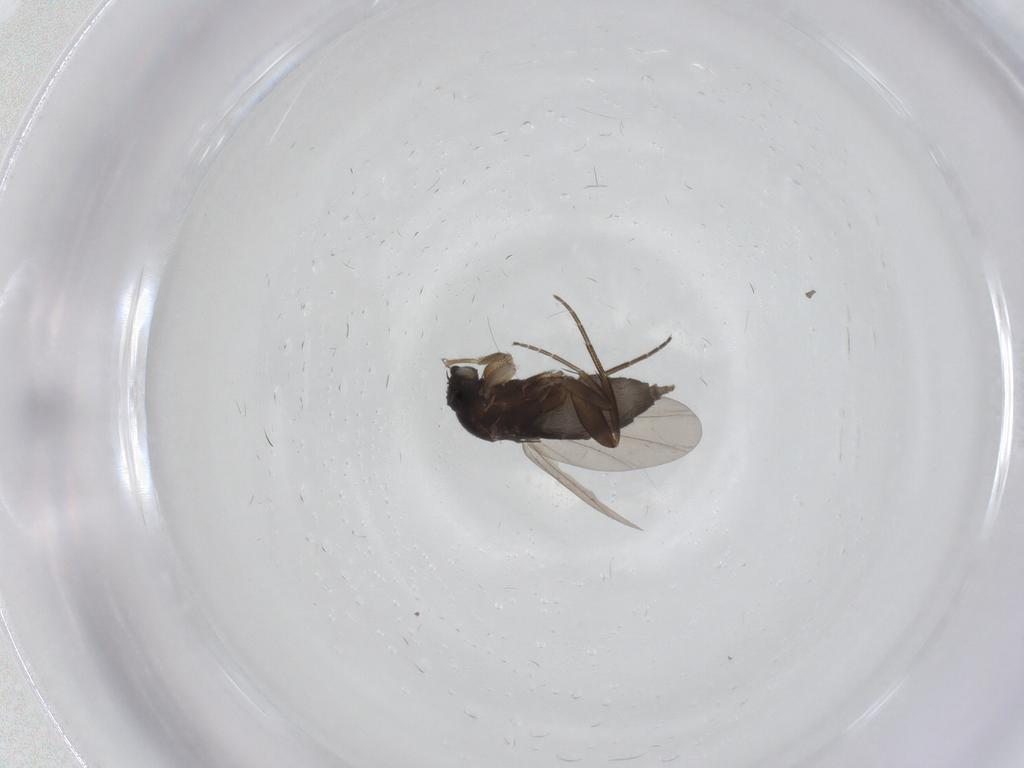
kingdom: Animalia
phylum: Arthropoda
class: Insecta
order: Diptera
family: Phoridae
